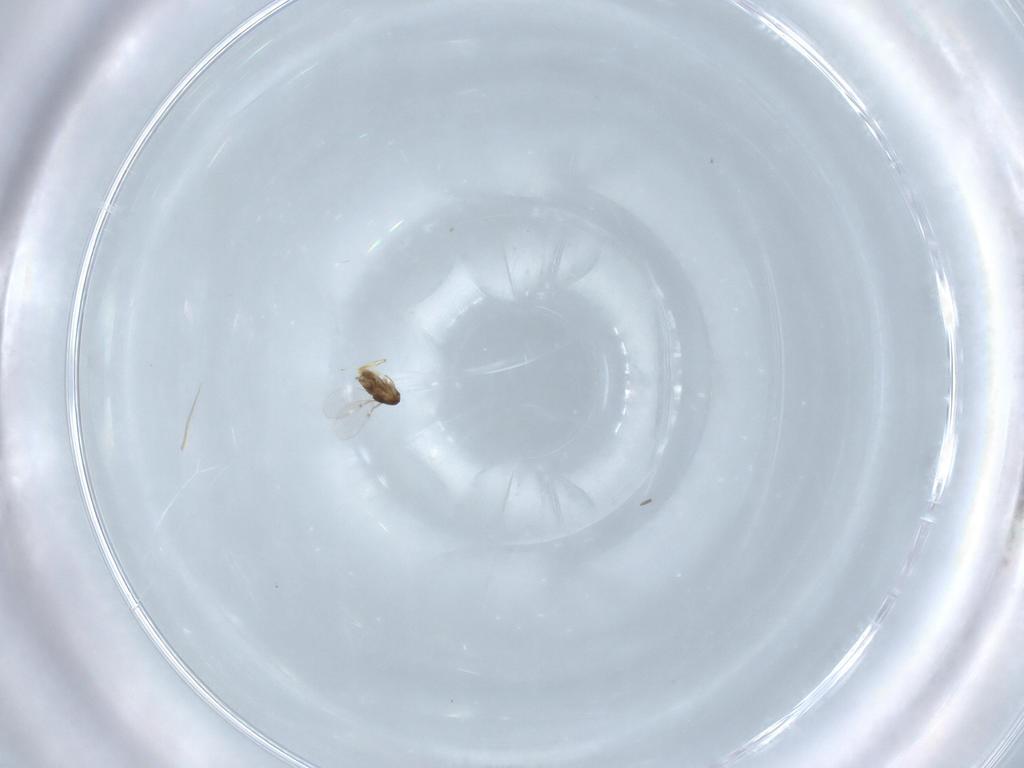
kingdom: Animalia
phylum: Arthropoda
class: Insecta
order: Hymenoptera
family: Encyrtidae
